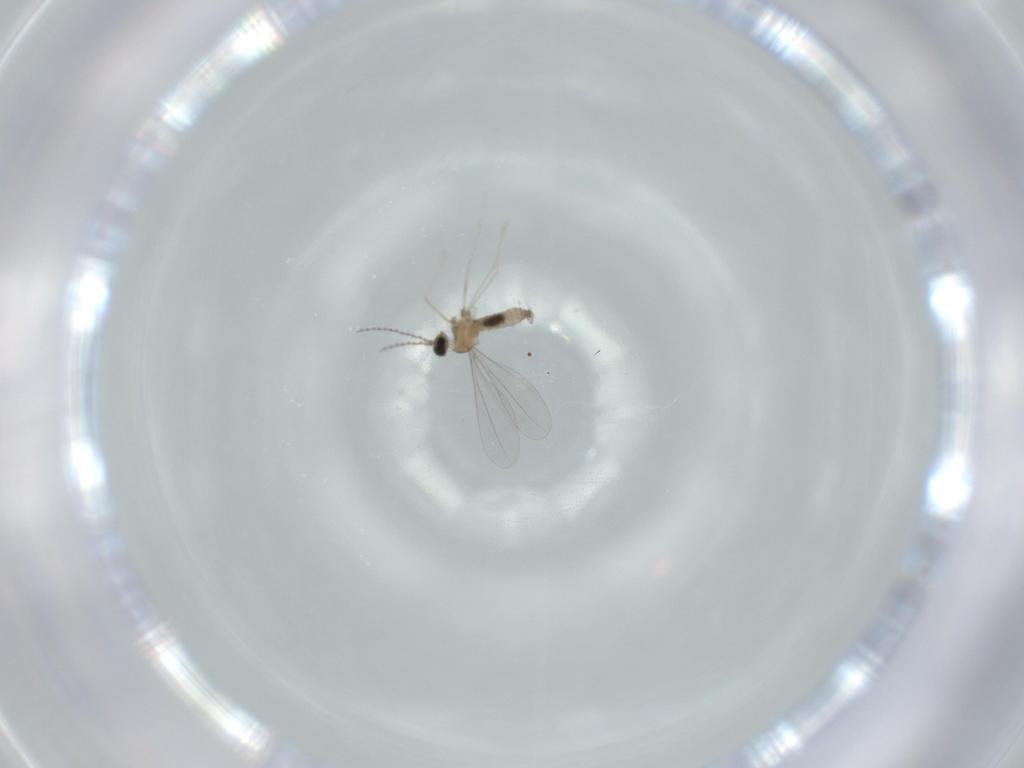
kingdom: Animalia
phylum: Arthropoda
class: Insecta
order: Diptera
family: Cecidomyiidae
